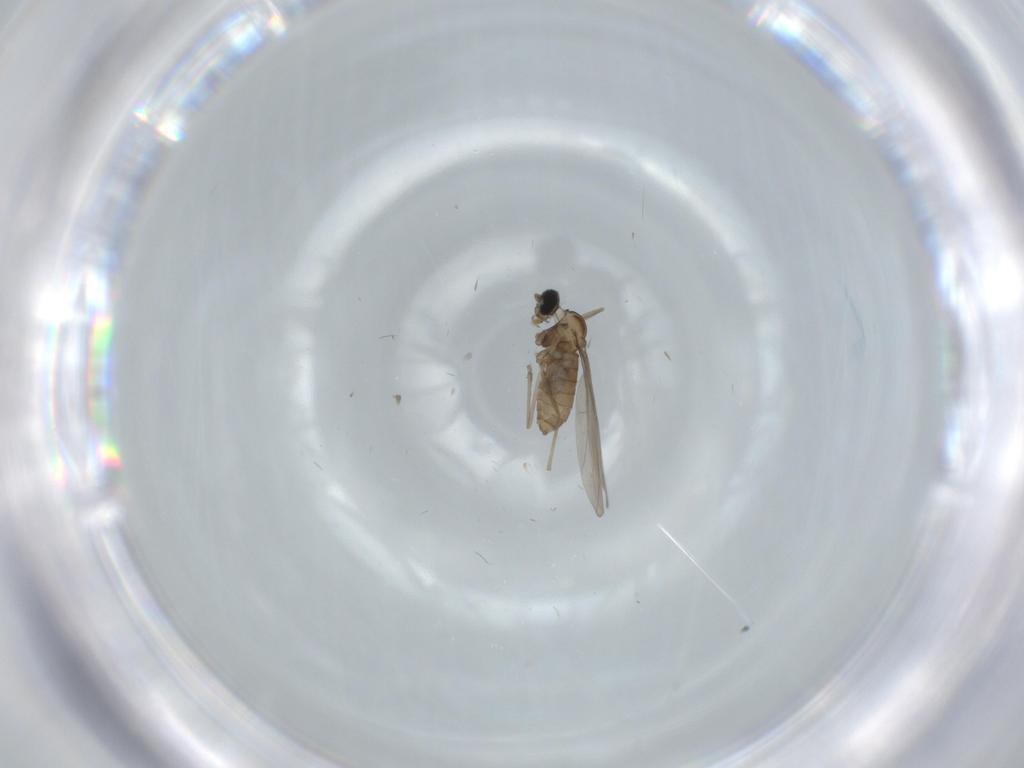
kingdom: Animalia
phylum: Arthropoda
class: Insecta
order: Diptera
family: Cecidomyiidae
